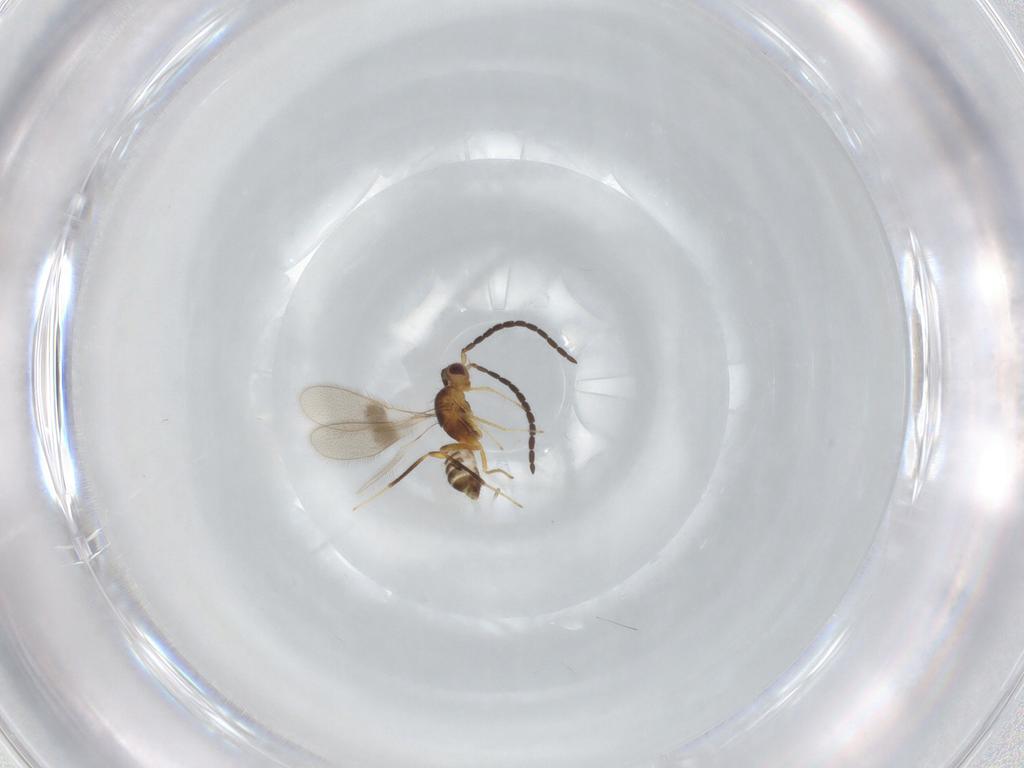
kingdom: Animalia
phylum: Arthropoda
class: Insecta
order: Hymenoptera
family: Mymaridae
